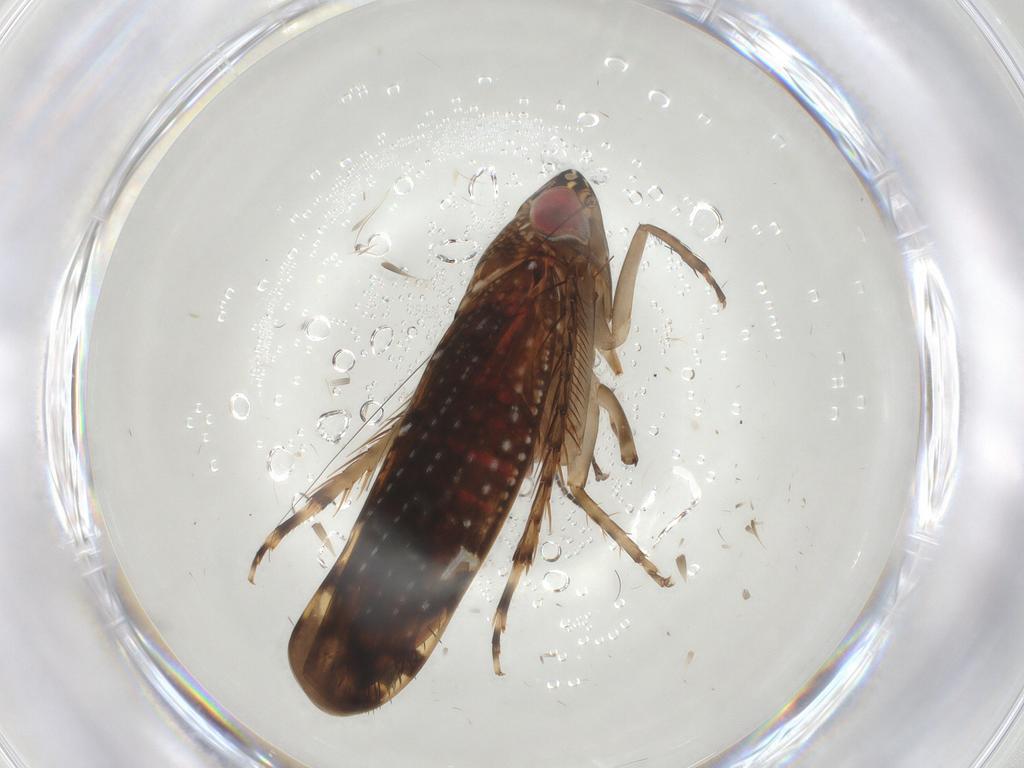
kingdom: Animalia
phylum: Arthropoda
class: Insecta
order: Hemiptera
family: Cicadellidae
